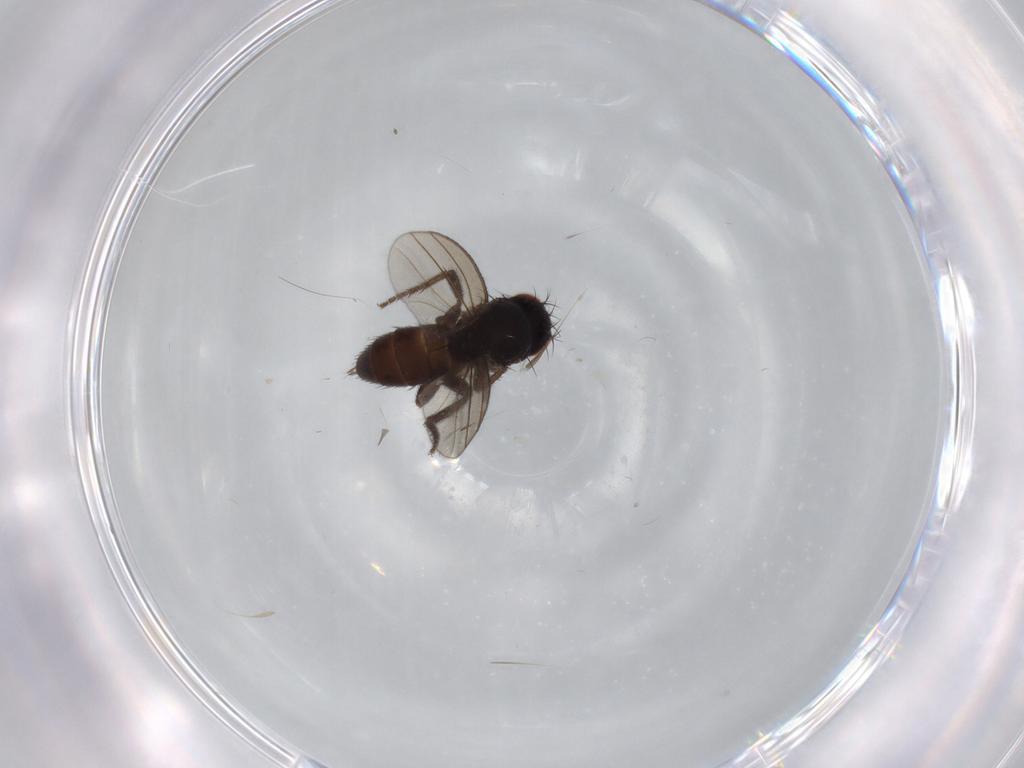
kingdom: Animalia
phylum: Arthropoda
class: Insecta
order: Diptera
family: Milichiidae
